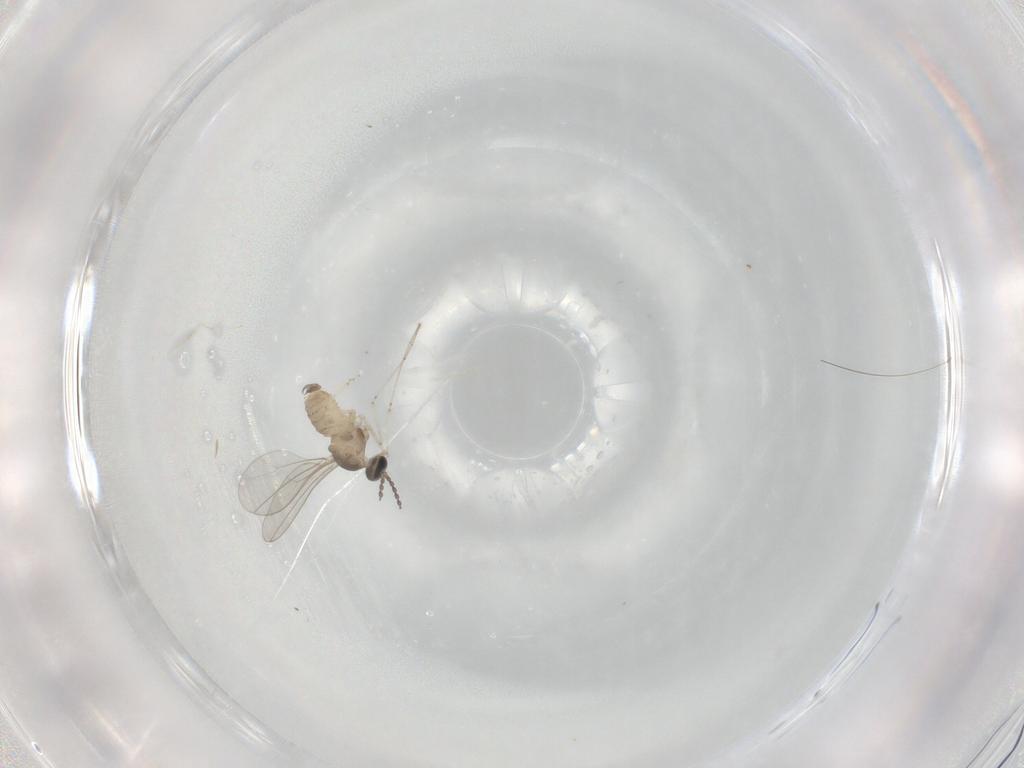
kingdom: Animalia
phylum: Arthropoda
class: Insecta
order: Diptera
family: Cecidomyiidae
